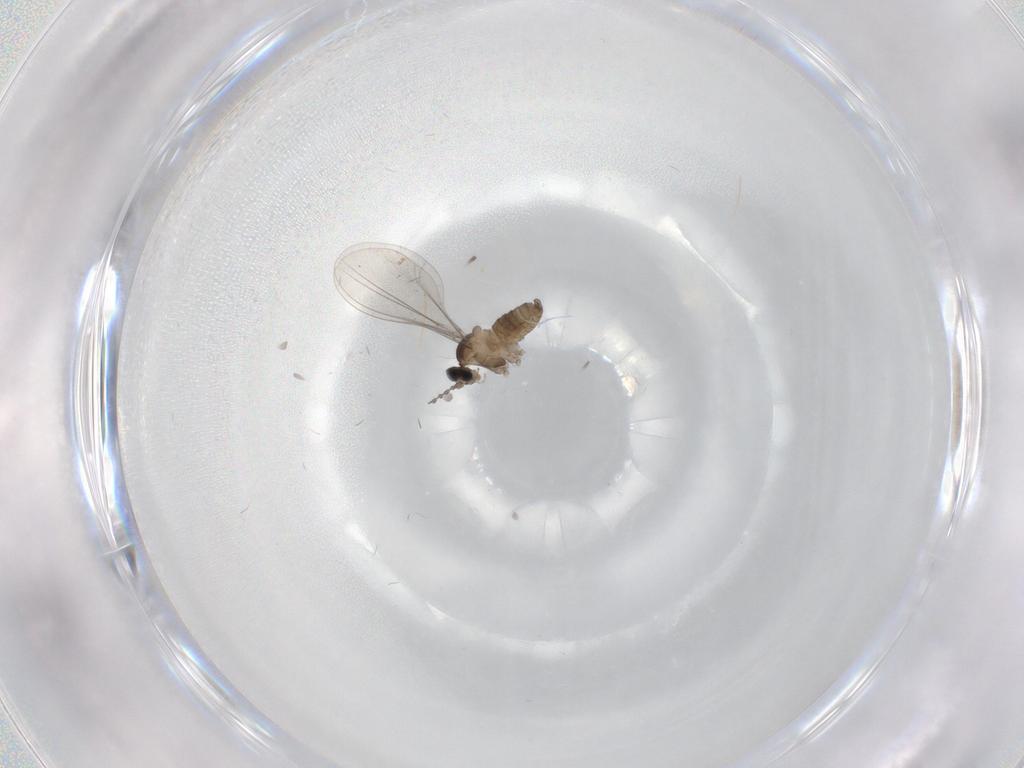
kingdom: Animalia
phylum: Arthropoda
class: Insecta
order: Diptera
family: Cecidomyiidae
